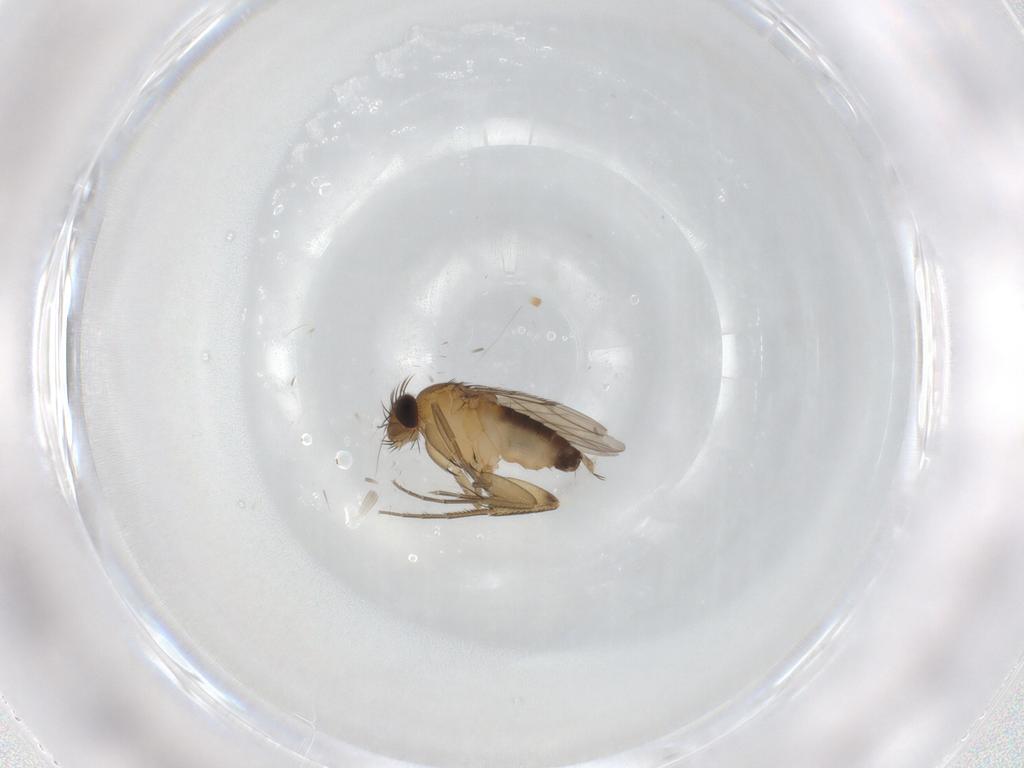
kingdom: Animalia
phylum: Arthropoda
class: Insecta
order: Diptera
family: Phoridae
